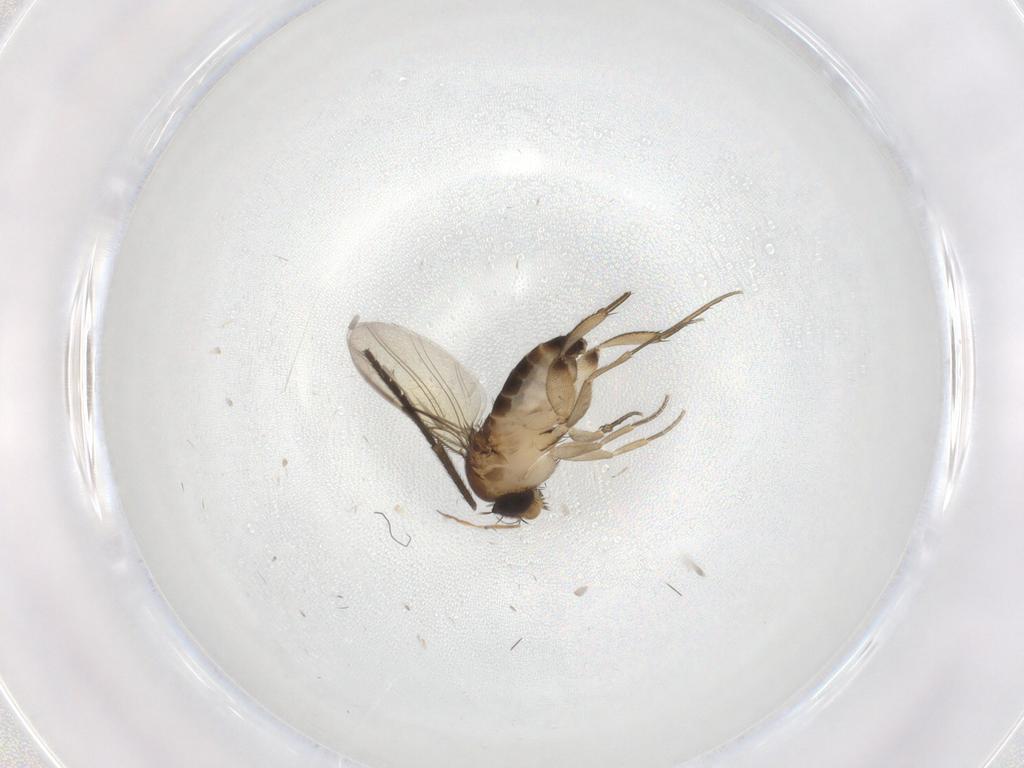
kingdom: Animalia
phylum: Arthropoda
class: Insecta
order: Diptera
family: Phoridae
